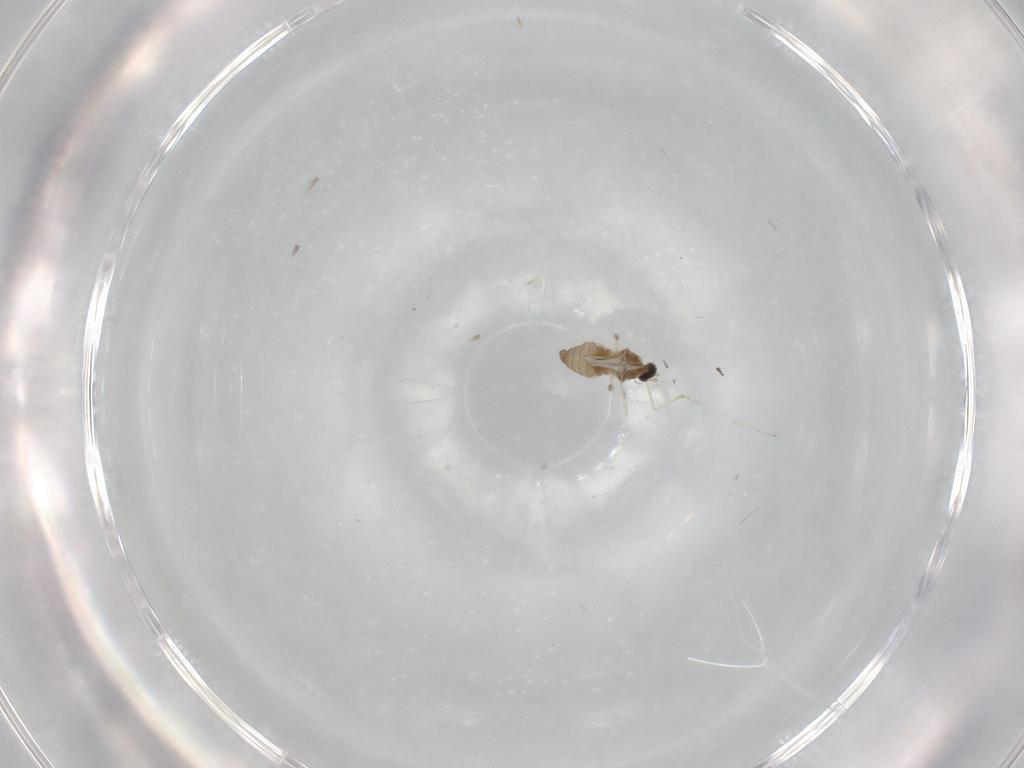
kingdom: Animalia
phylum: Arthropoda
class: Insecta
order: Diptera
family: Cecidomyiidae
